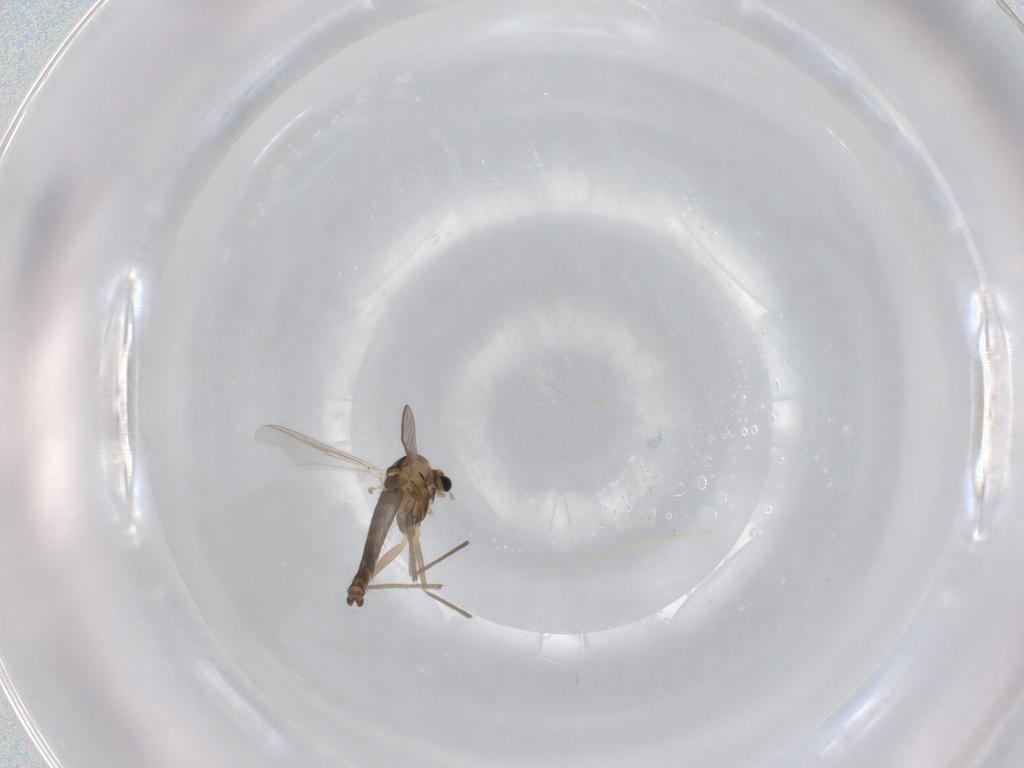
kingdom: Animalia
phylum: Arthropoda
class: Insecta
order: Diptera
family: Chironomidae
